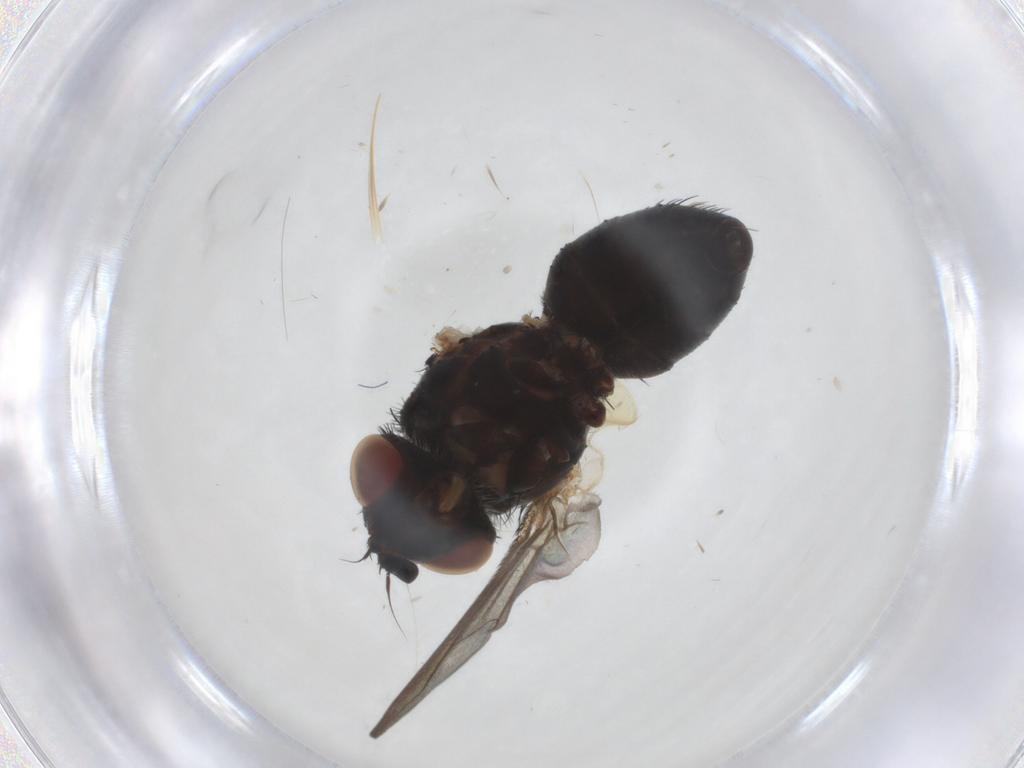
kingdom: Animalia
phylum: Arthropoda
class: Insecta
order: Diptera
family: Tachinidae
